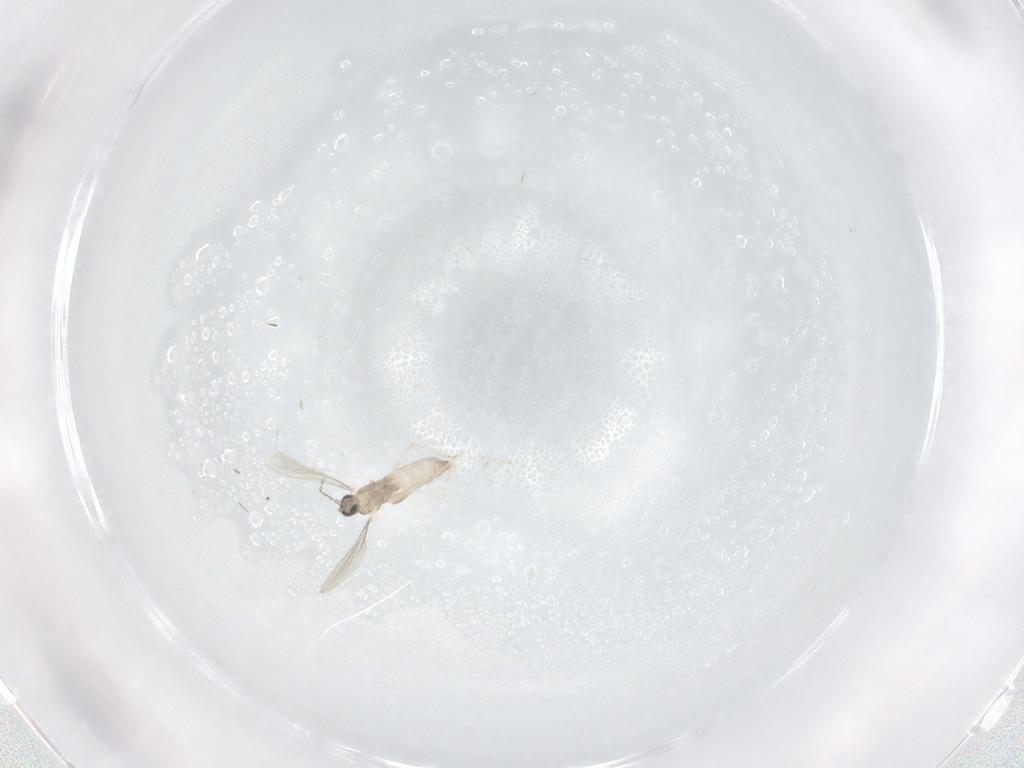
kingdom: Animalia
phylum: Arthropoda
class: Insecta
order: Diptera
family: Cecidomyiidae
